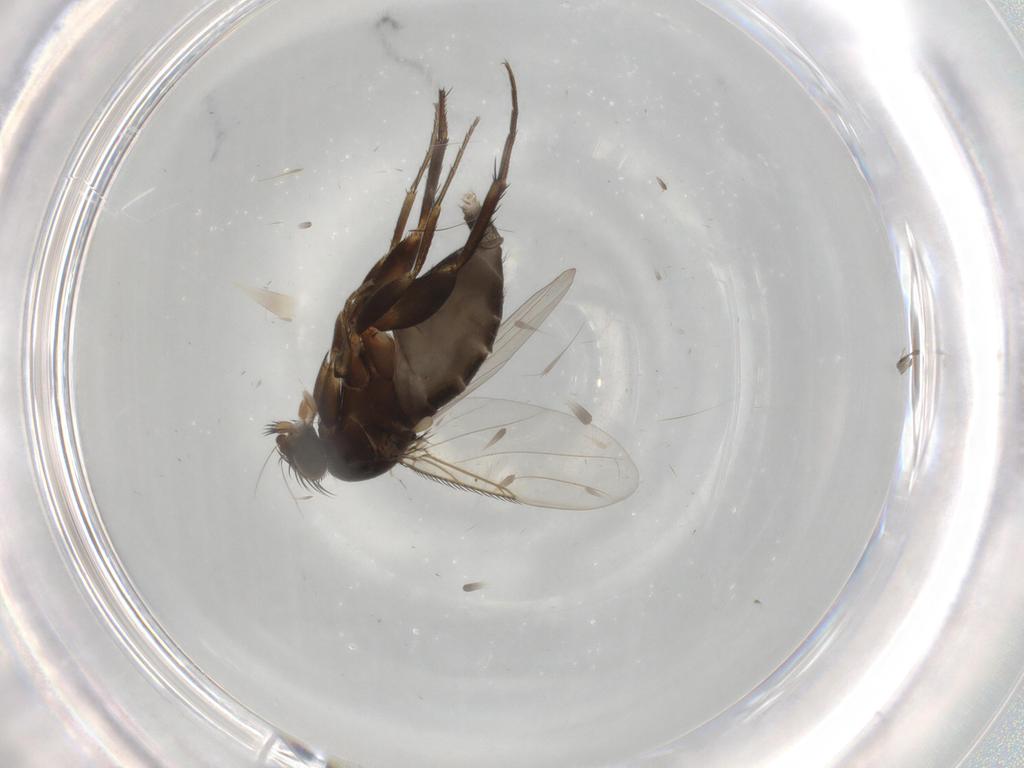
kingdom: Animalia
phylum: Arthropoda
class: Insecta
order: Diptera
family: Phoridae
